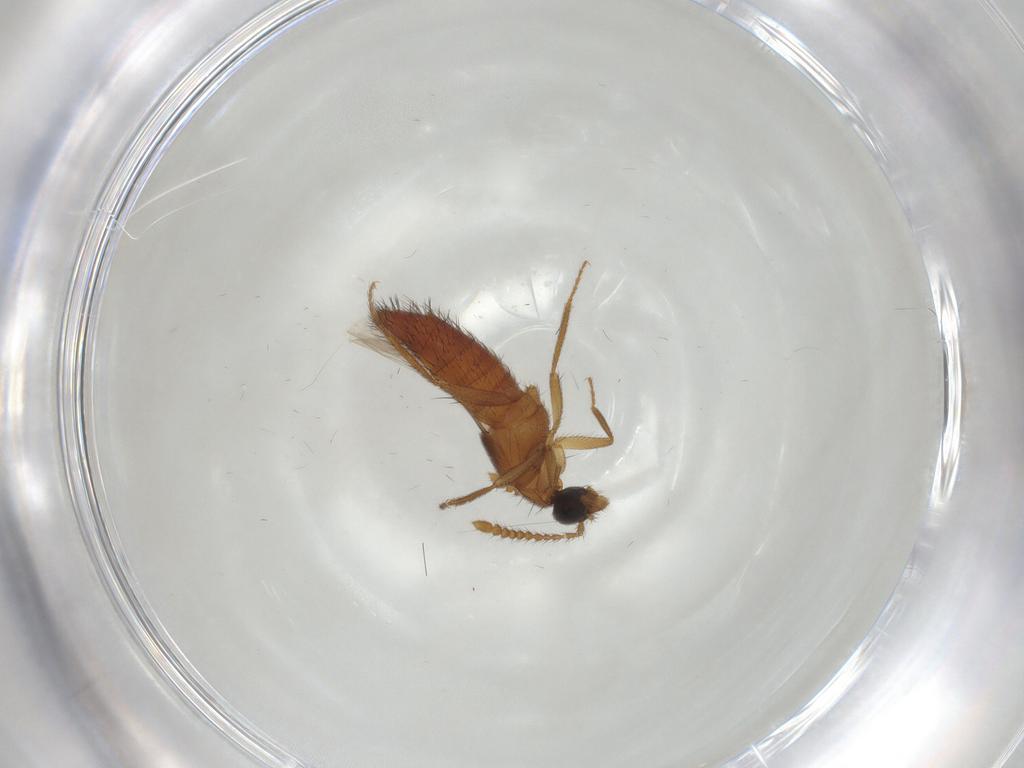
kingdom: Animalia
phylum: Arthropoda
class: Insecta
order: Coleoptera
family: Staphylinidae
